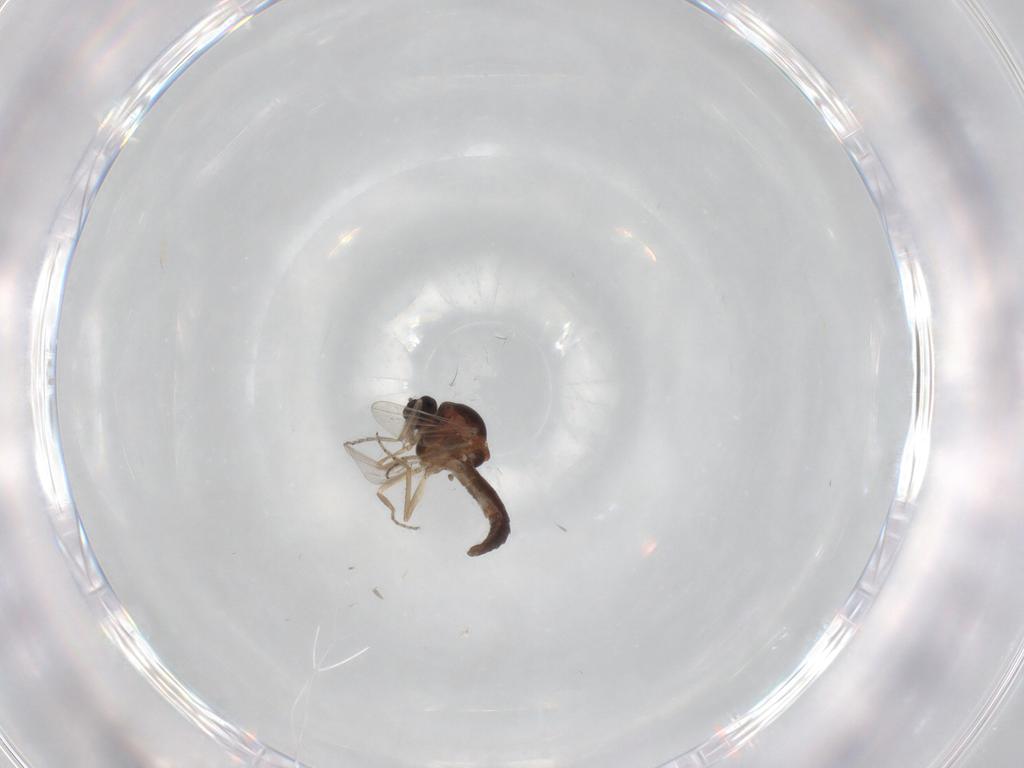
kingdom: Animalia
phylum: Arthropoda
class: Insecta
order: Diptera
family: Ceratopogonidae
